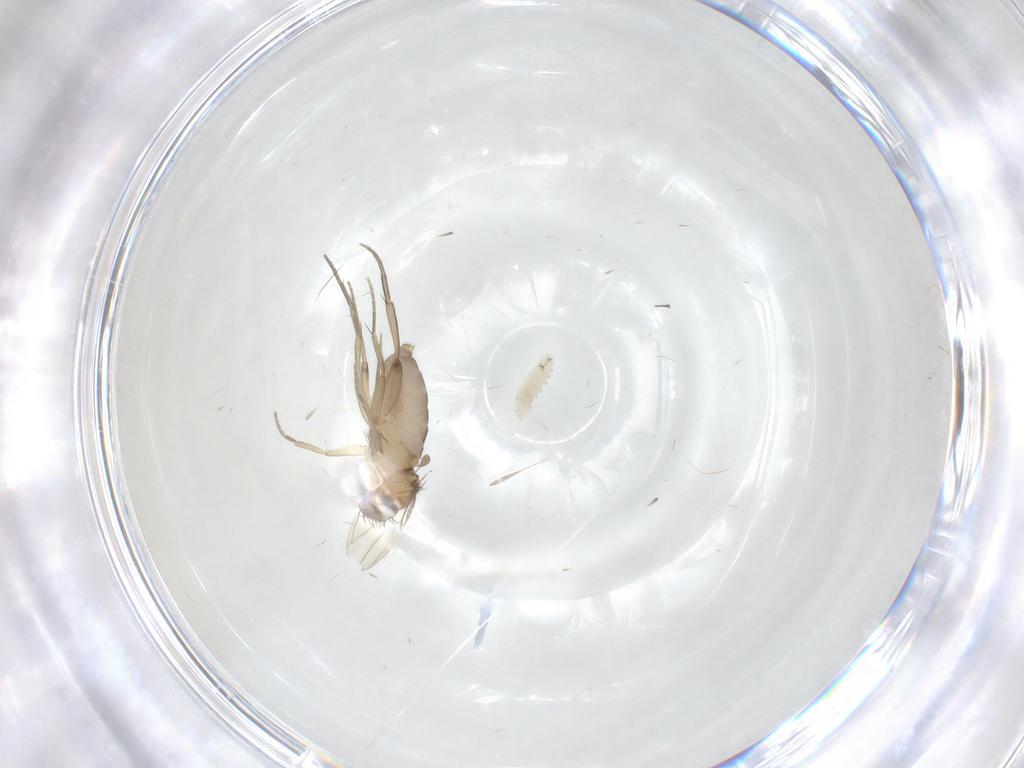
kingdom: Animalia
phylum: Arthropoda
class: Insecta
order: Diptera
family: Phoridae
